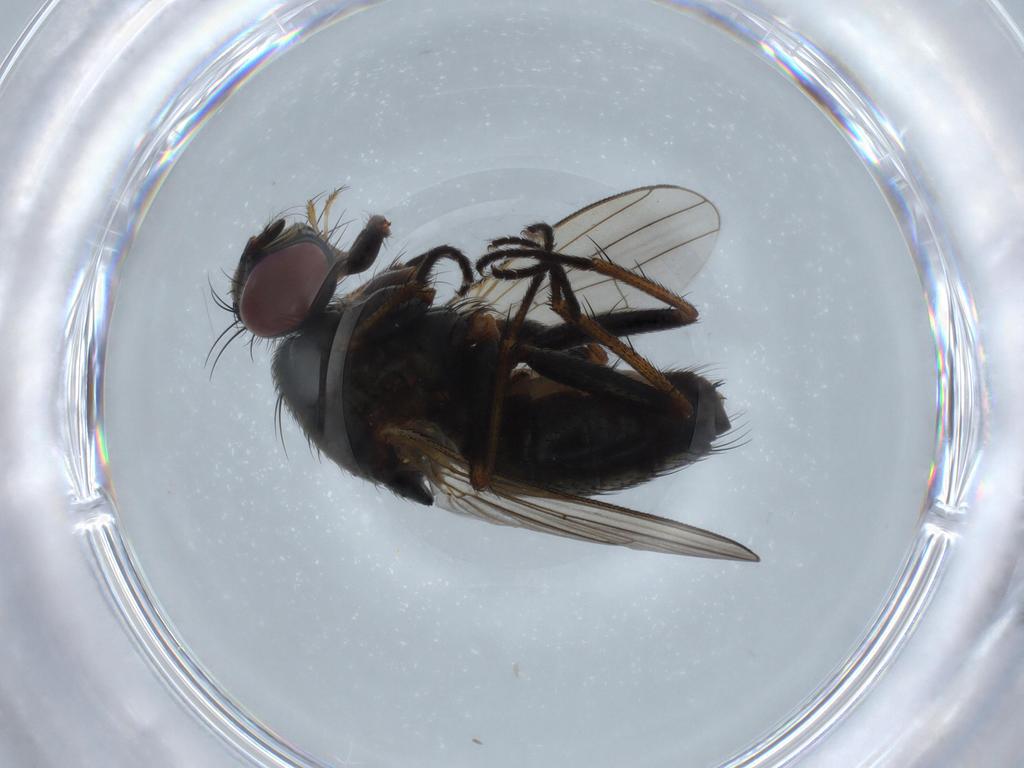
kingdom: Animalia
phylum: Arthropoda
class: Insecta
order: Diptera
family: Muscidae
